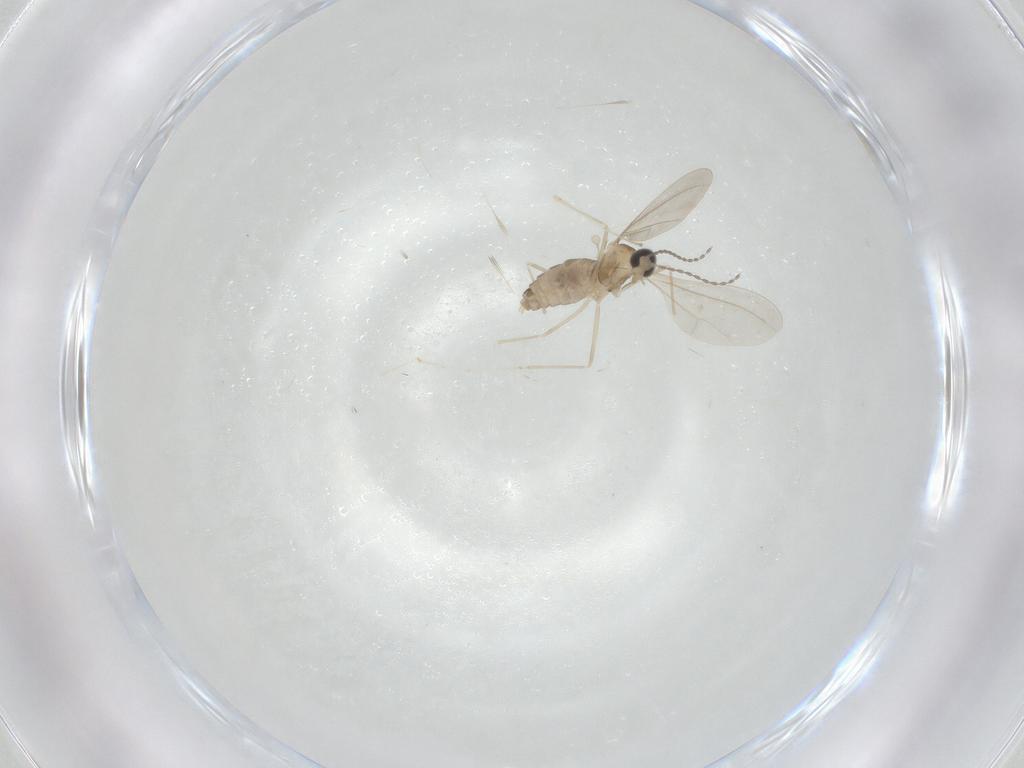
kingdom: Animalia
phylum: Arthropoda
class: Insecta
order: Diptera
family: Cecidomyiidae
